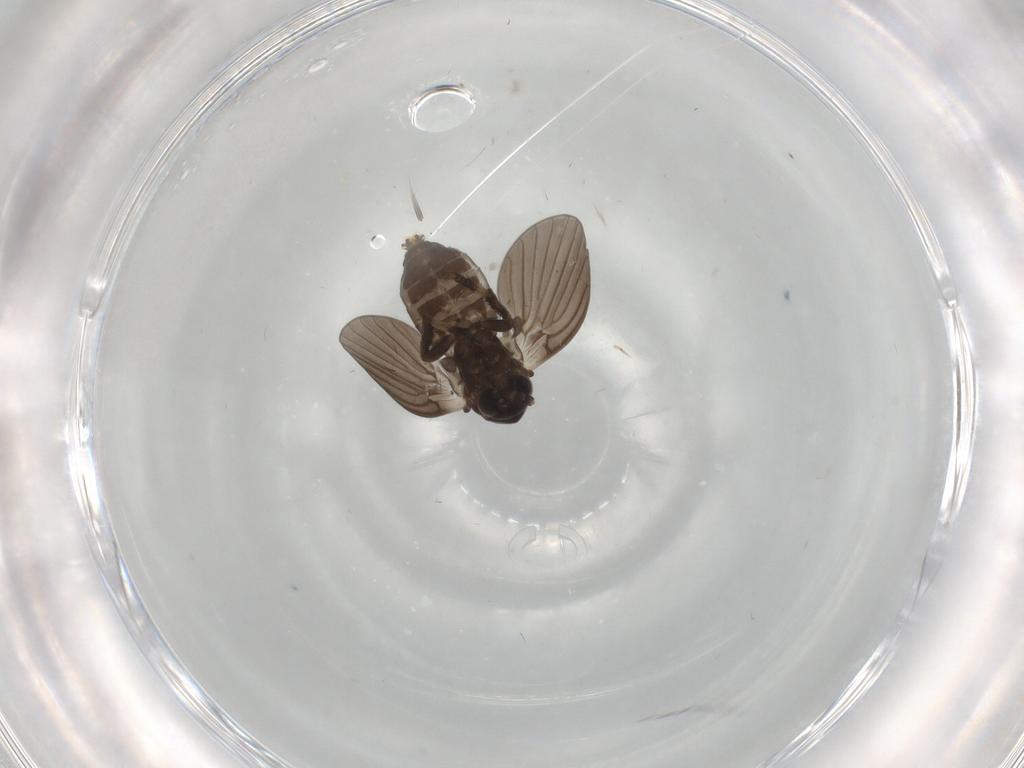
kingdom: Animalia
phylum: Arthropoda
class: Insecta
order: Diptera
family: Psychodidae
